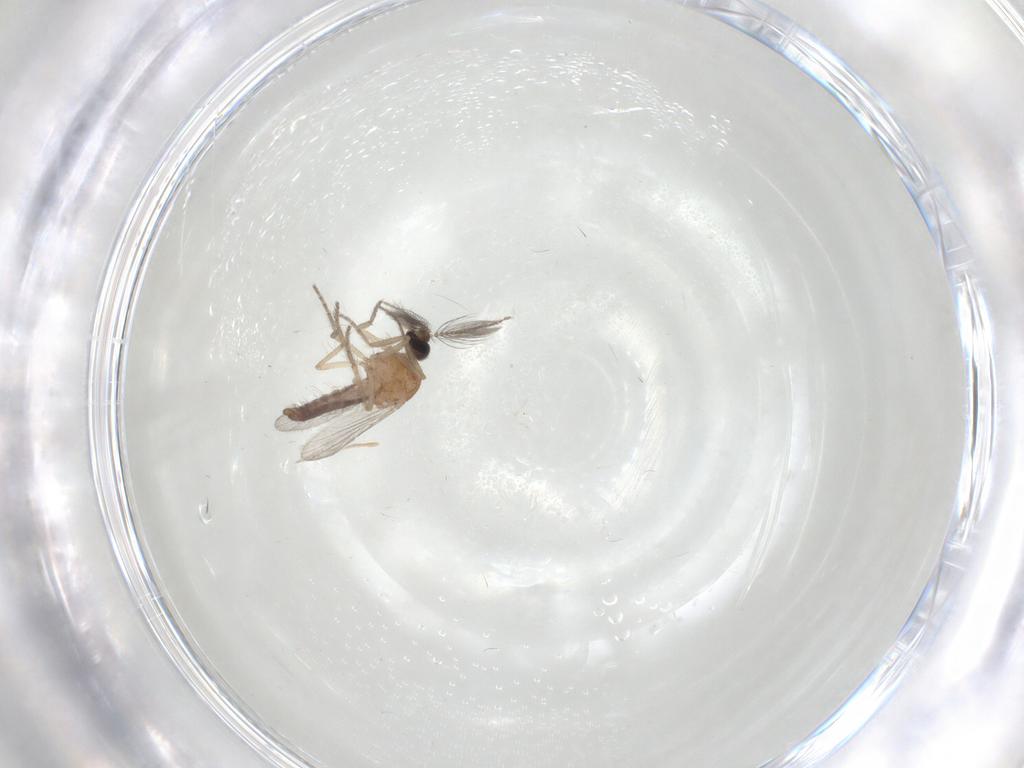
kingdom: Animalia
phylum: Arthropoda
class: Insecta
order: Diptera
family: Ceratopogonidae
